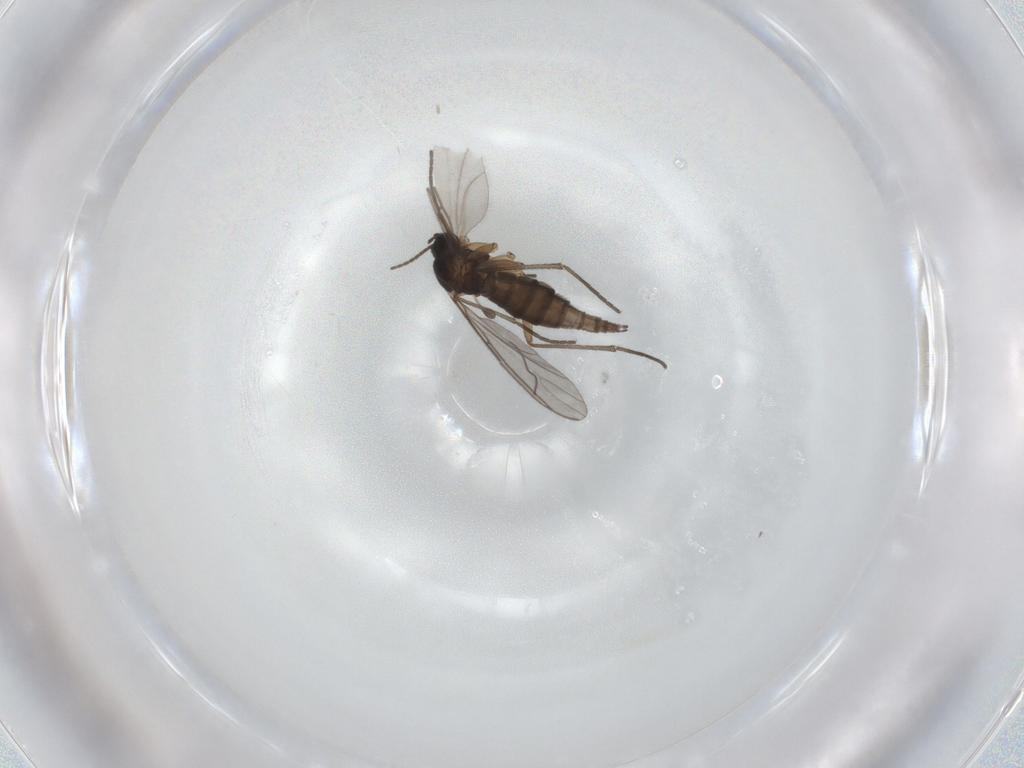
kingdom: Animalia
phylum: Arthropoda
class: Insecta
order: Diptera
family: Sciaridae
